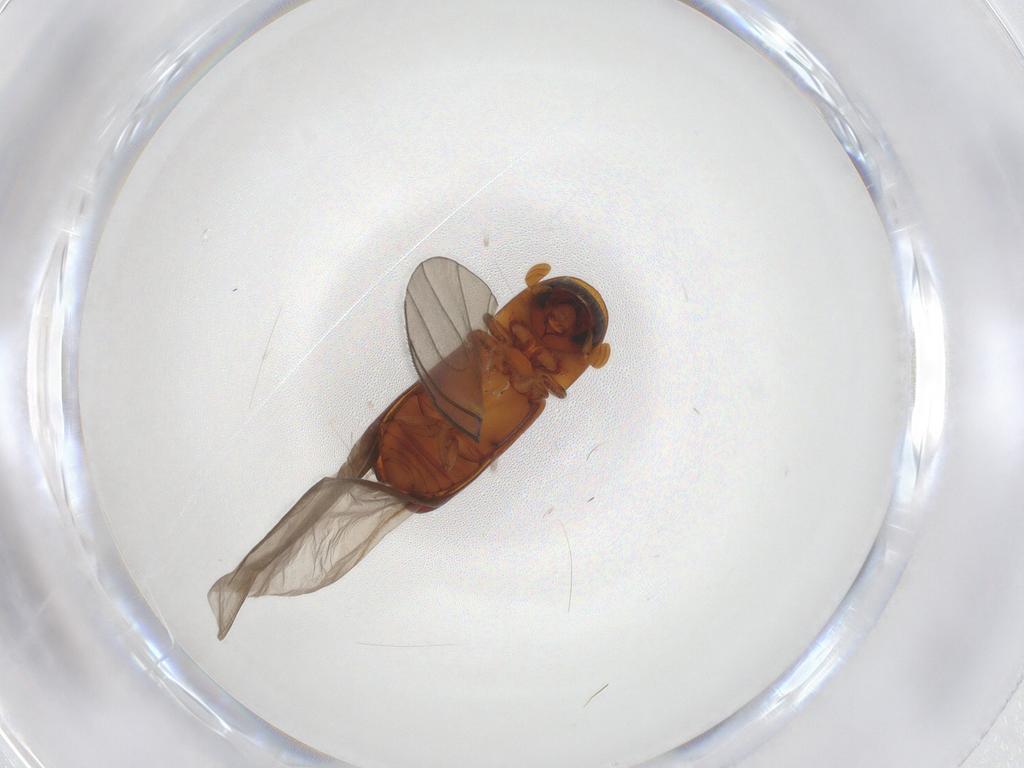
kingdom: Animalia
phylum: Arthropoda
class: Insecta
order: Coleoptera
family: Curculionidae
